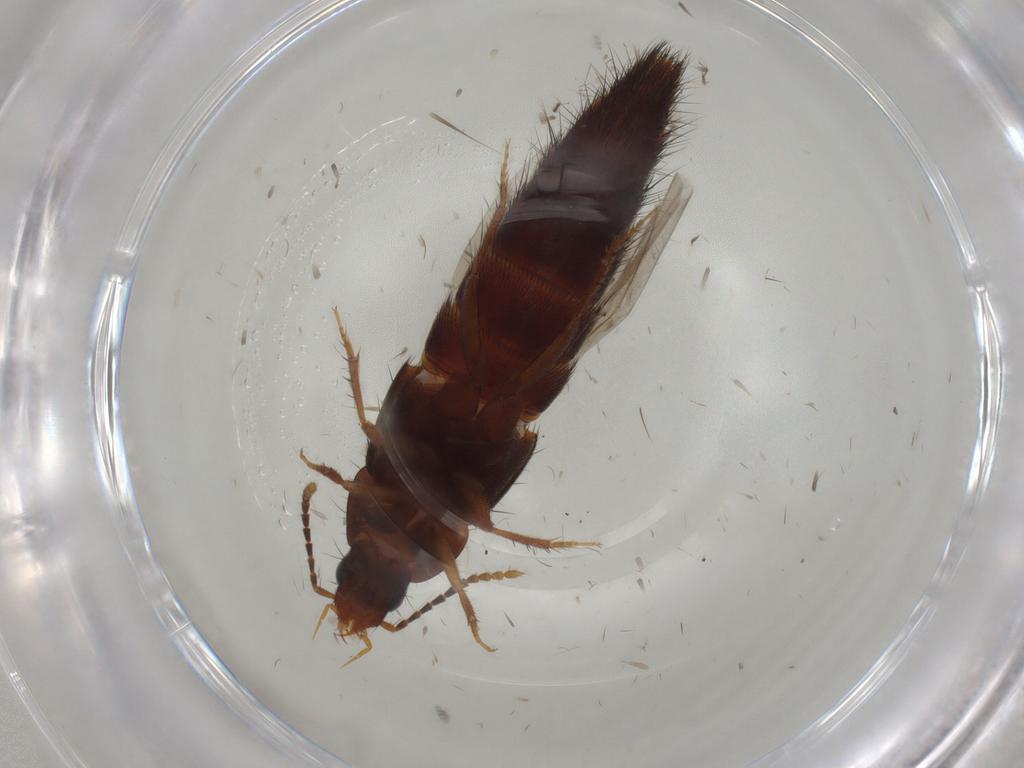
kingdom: Animalia
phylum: Arthropoda
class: Insecta
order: Coleoptera
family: Staphylinidae
